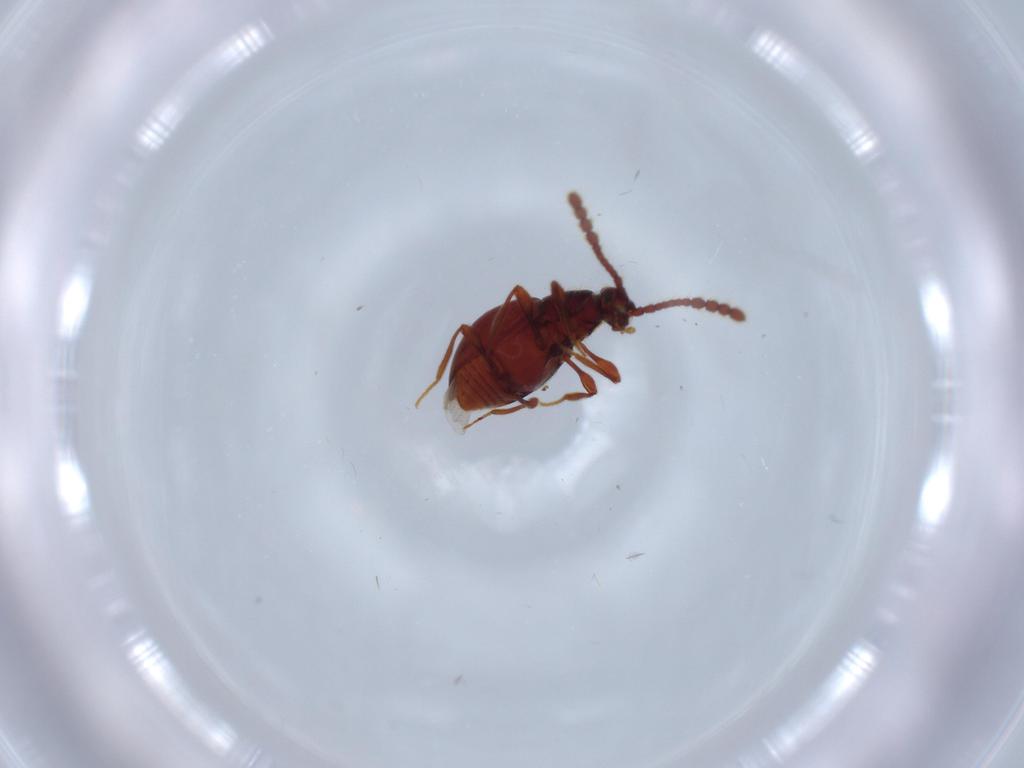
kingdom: Animalia
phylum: Arthropoda
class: Insecta
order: Coleoptera
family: Staphylinidae
